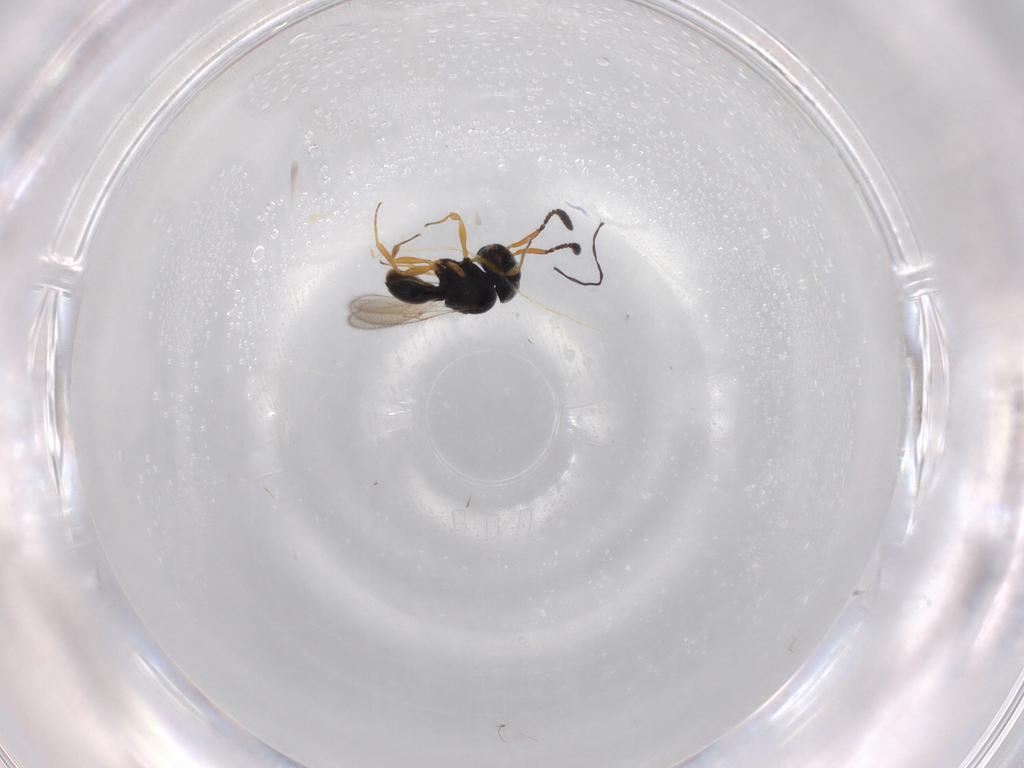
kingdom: Animalia
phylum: Arthropoda
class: Insecta
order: Hymenoptera
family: Scelionidae
